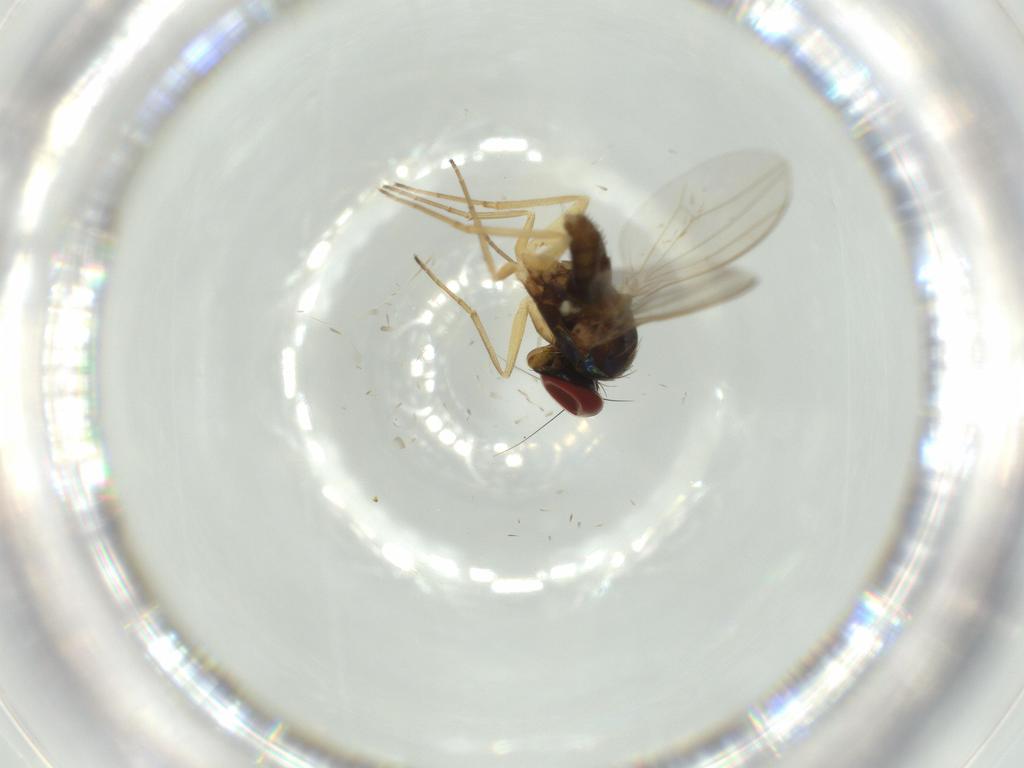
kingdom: Animalia
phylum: Arthropoda
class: Insecta
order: Diptera
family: Dolichopodidae
